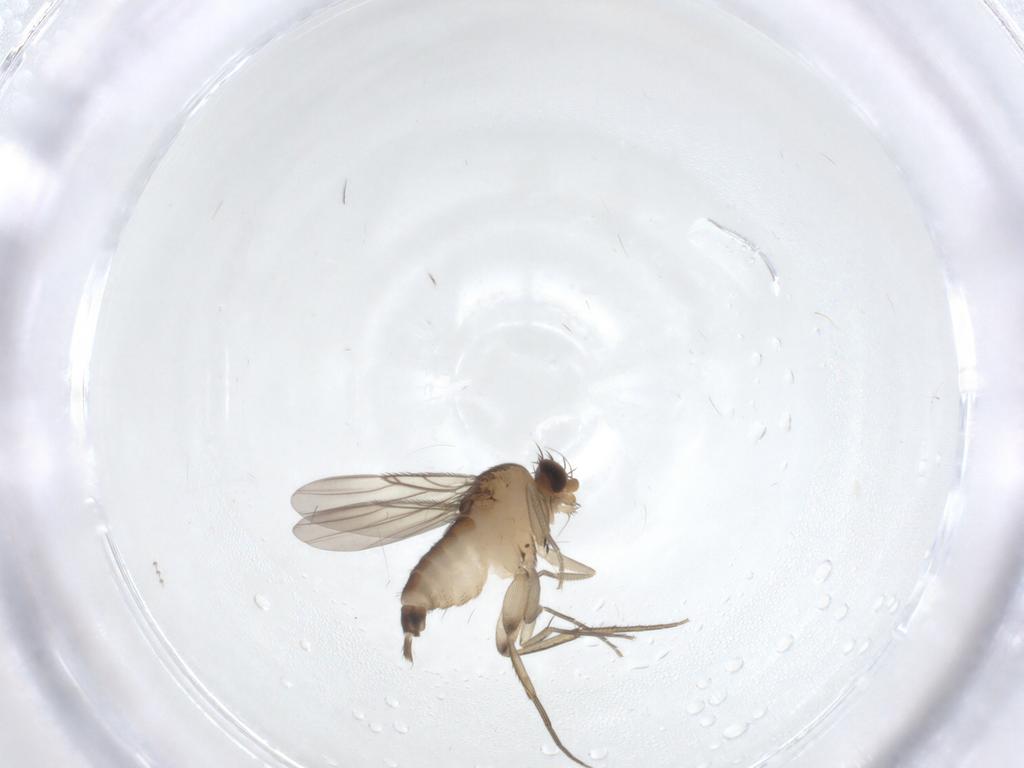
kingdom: Animalia
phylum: Arthropoda
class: Insecta
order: Diptera
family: Phoridae
